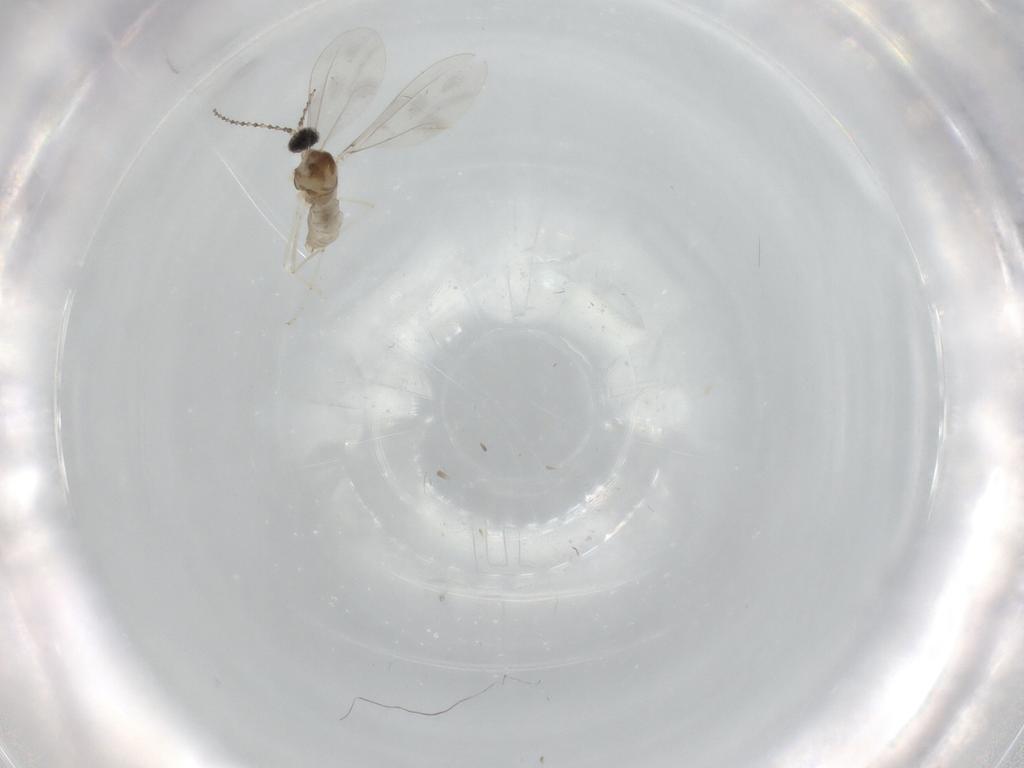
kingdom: Animalia
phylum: Arthropoda
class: Insecta
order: Diptera
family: Cecidomyiidae
